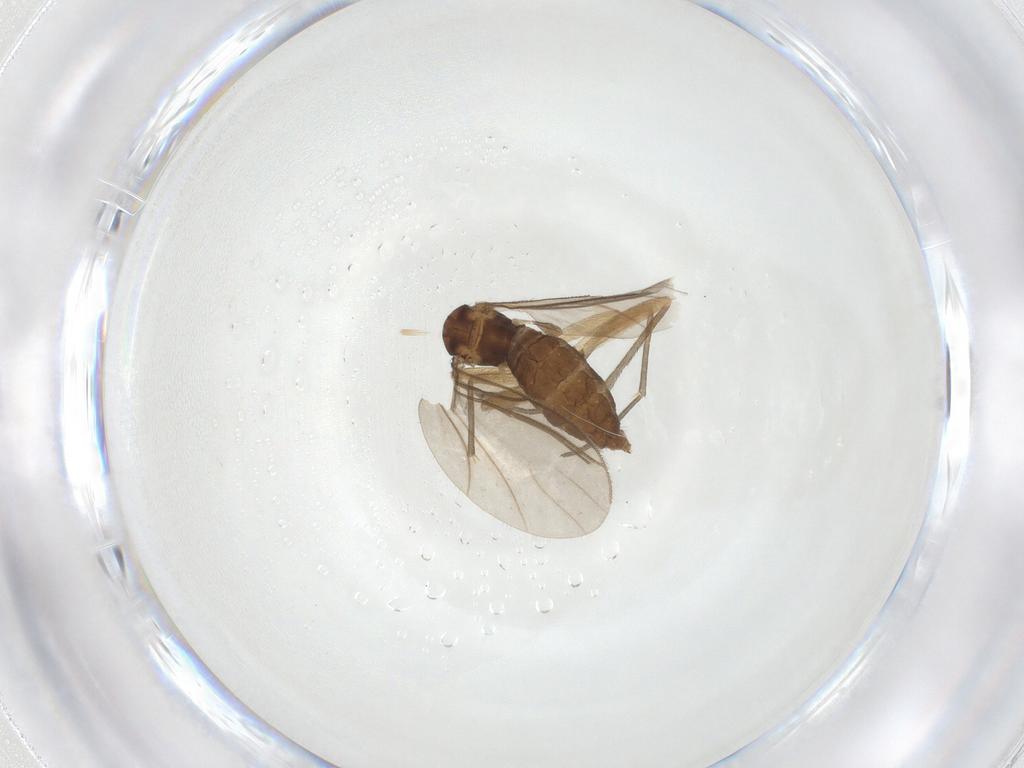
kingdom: Animalia
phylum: Arthropoda
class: Insecta
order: Diptera
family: Sciaridae
